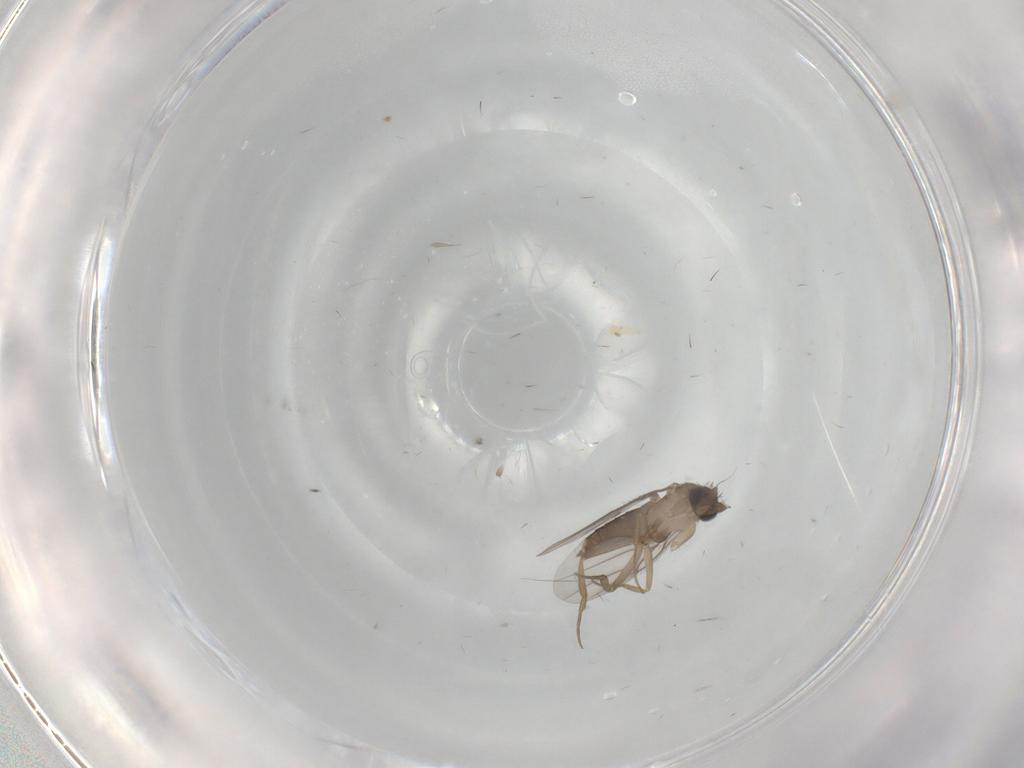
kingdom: Animalia
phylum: Arthropoda
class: Insecta
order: Diptera
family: Phoridae
